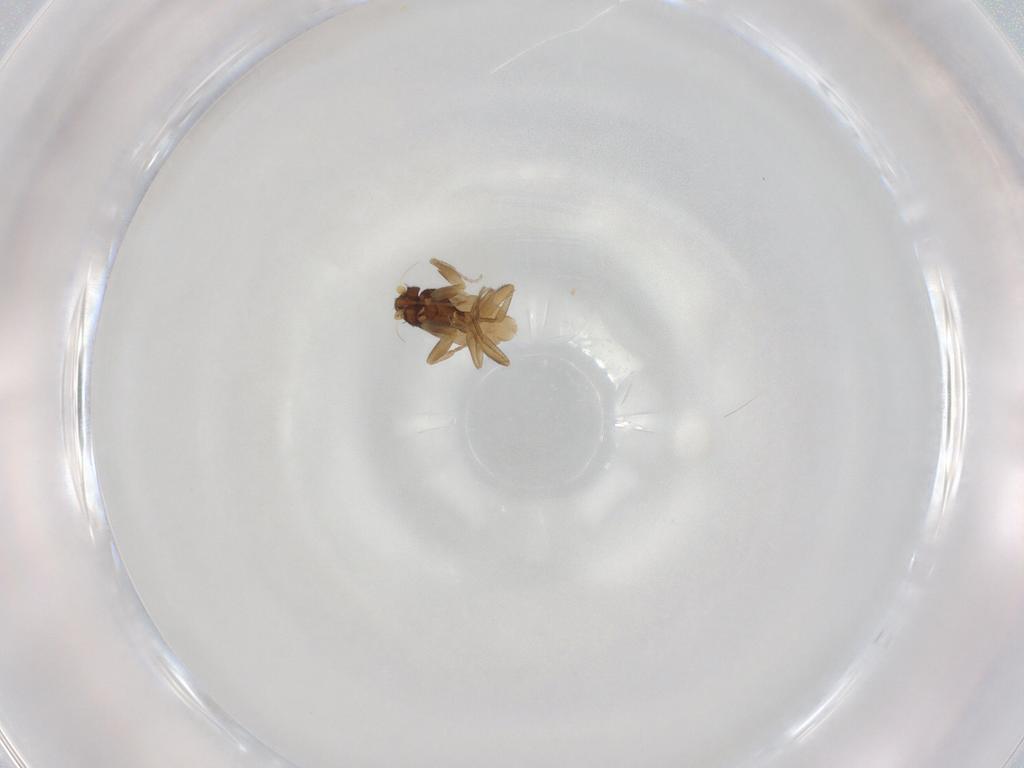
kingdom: Animalia
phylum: Arthropoda
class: Insecta
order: Diptera
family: Phoridae
